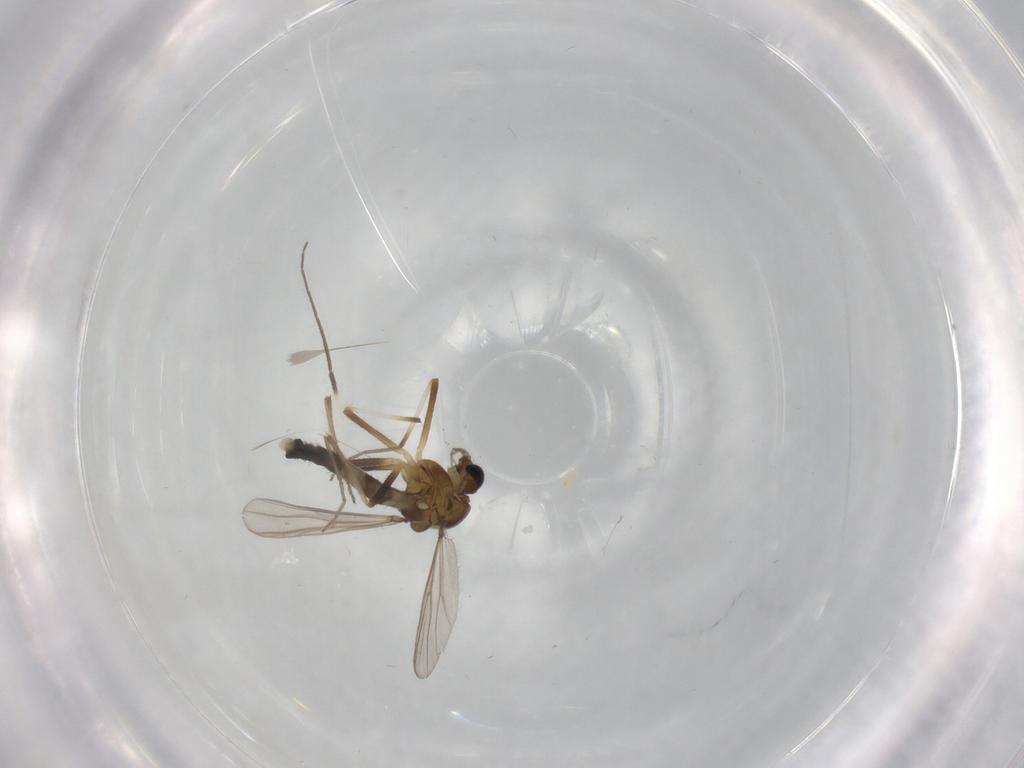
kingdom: Animalia
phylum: Arthropoda
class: Insecta
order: Diptera
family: Chironomidae
